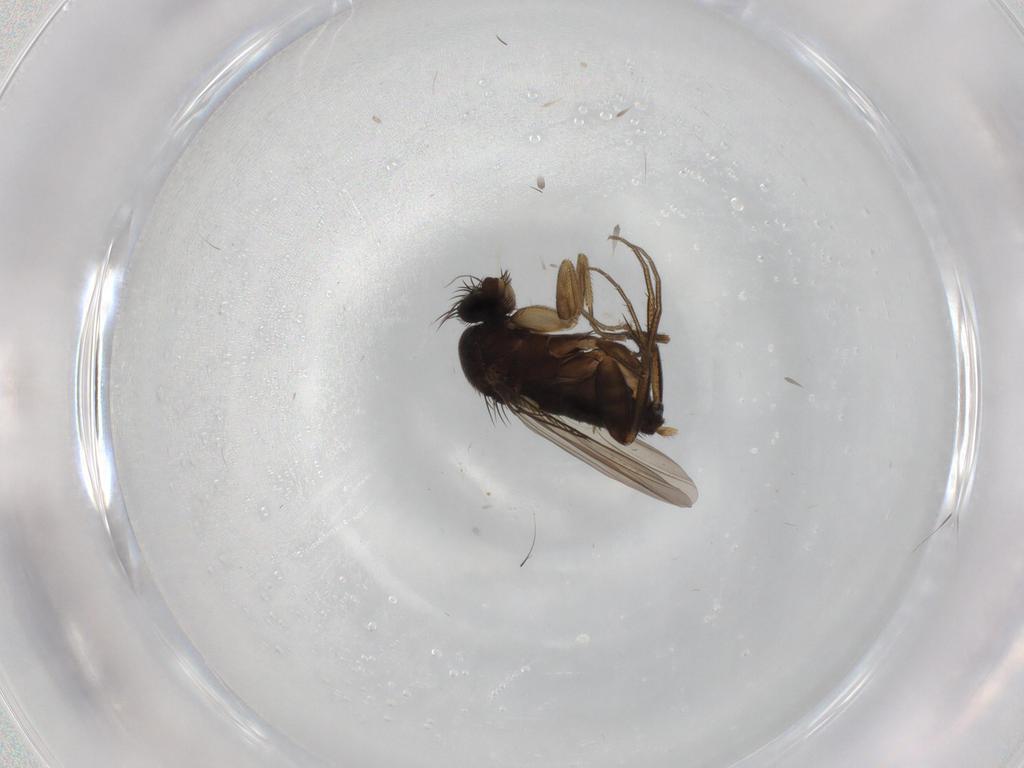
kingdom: Animalia
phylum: Arthropoda
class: Insecta
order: Diptera
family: Phoridae
